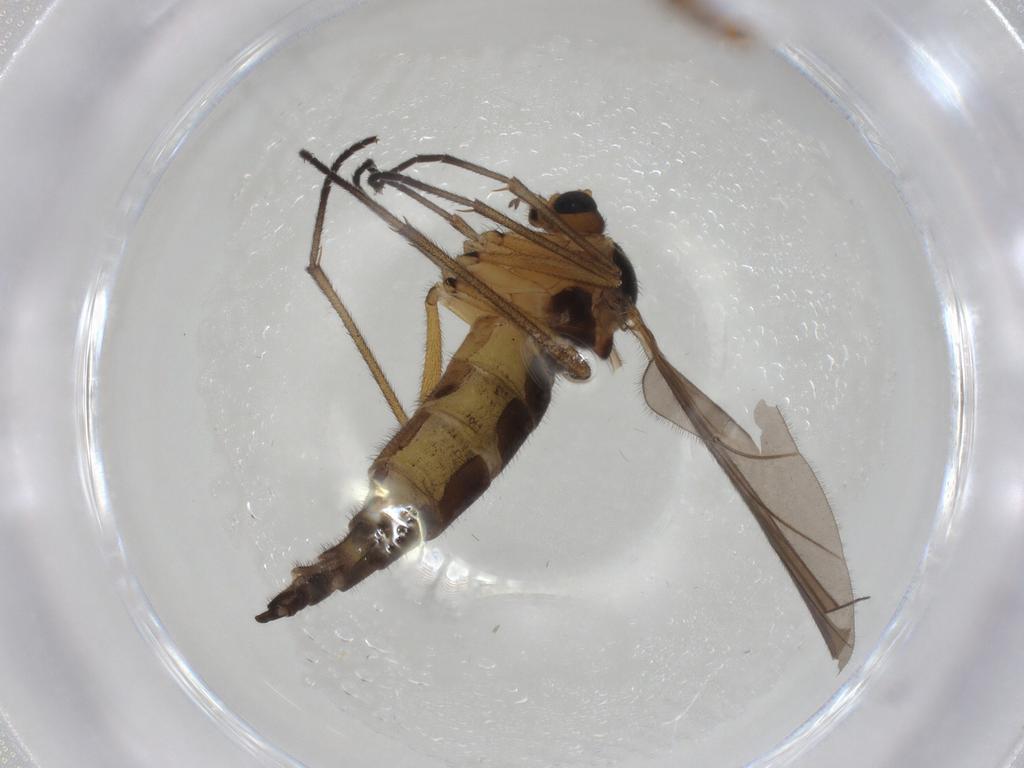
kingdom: Animalia
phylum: Arthropoda
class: Insecta
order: Diptera
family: Sciaridae
